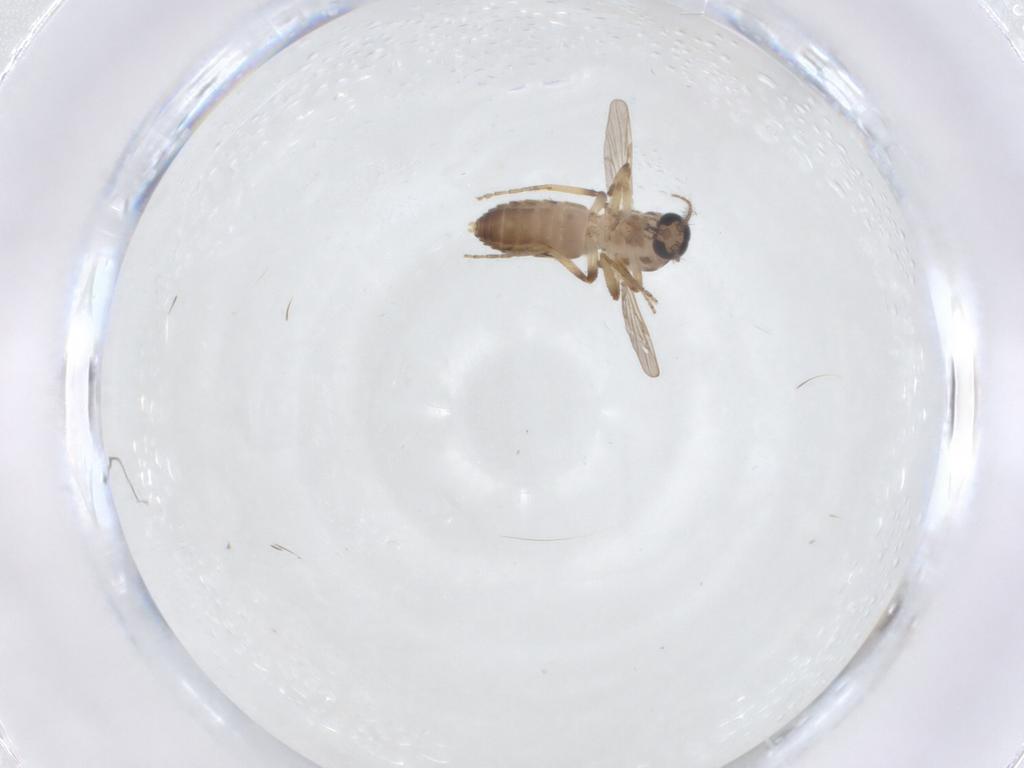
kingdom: Animalia
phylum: Arthropoda
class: Insecta
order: Diptera
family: Ceratopogonidae
